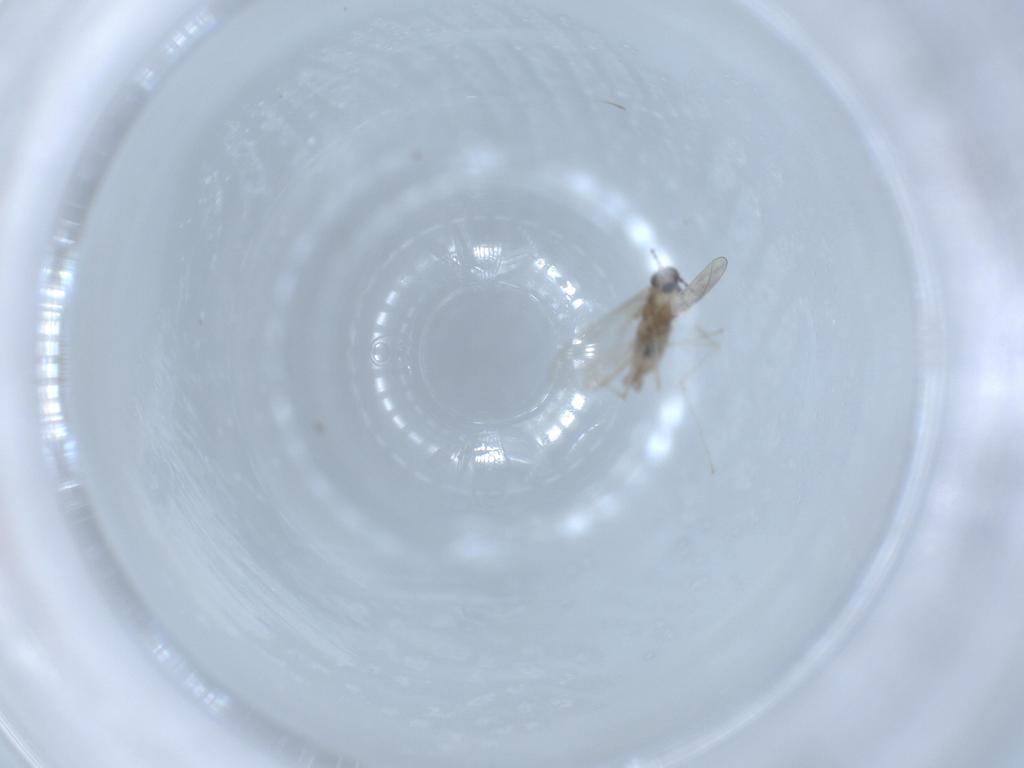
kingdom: Animalia
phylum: Arthropoda
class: Insecta
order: Diptera
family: Cecidomyiidae
